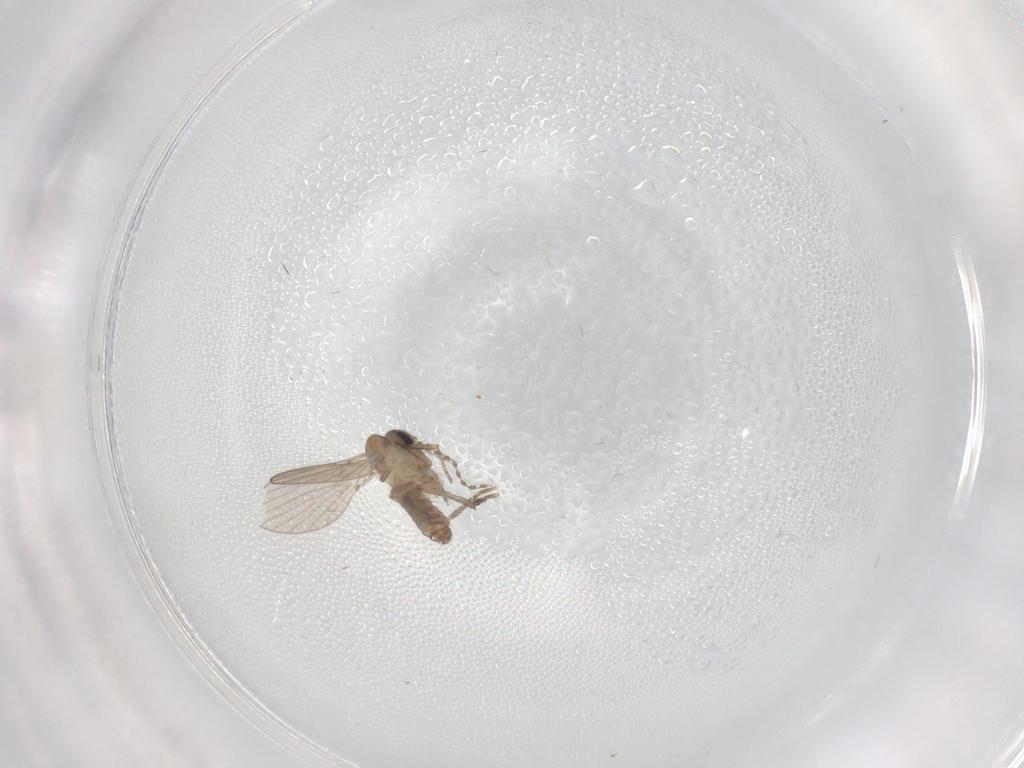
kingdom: Animalia
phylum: Arthropoda
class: Insecta
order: Diptera
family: Psychodidae
